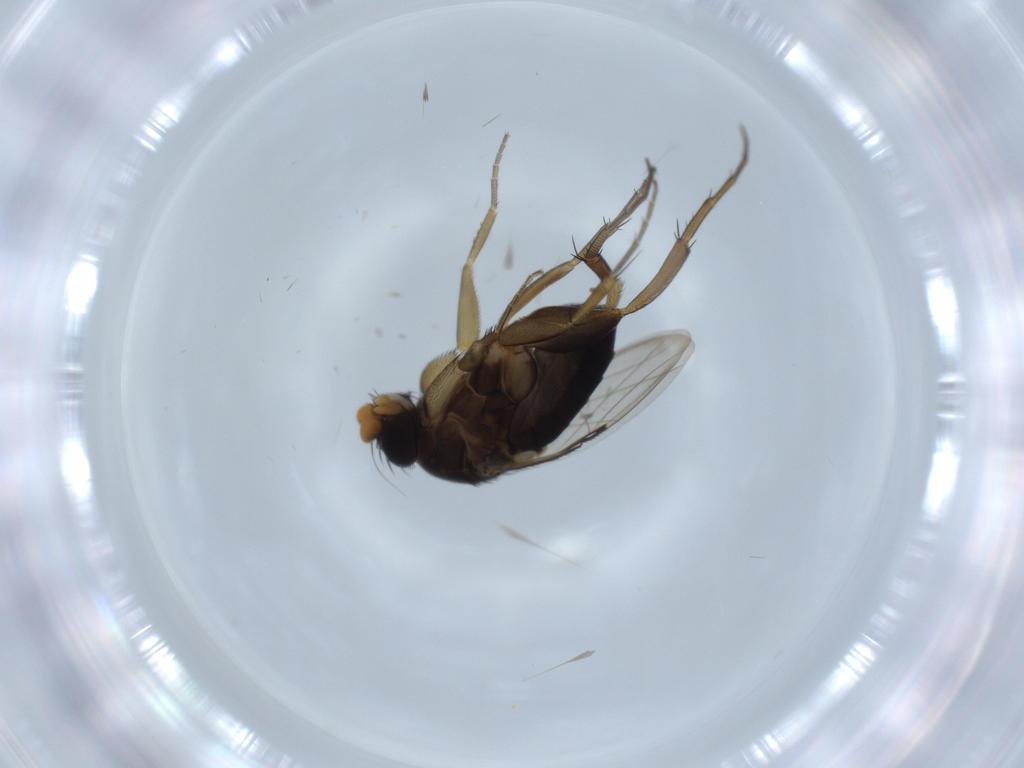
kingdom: Animalia
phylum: Arthropoda
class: Insecta
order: Diptera
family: Phoridae
